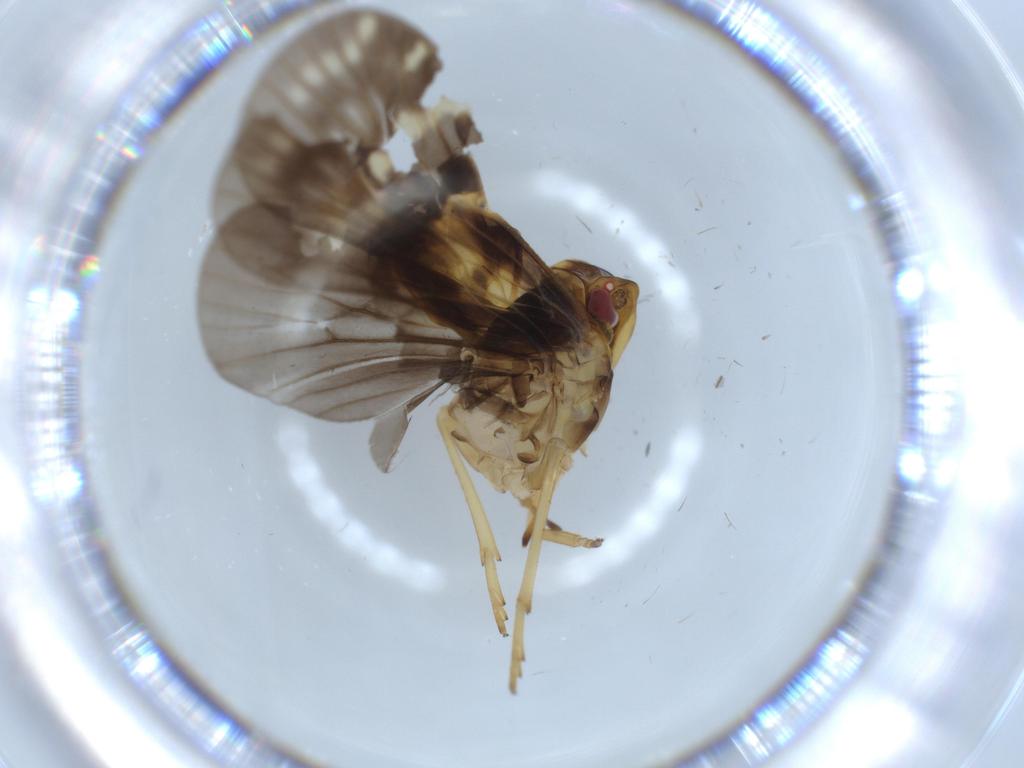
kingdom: Animalia
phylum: Arthropoda
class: Insecta
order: Hemiptera
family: Cixiidae
